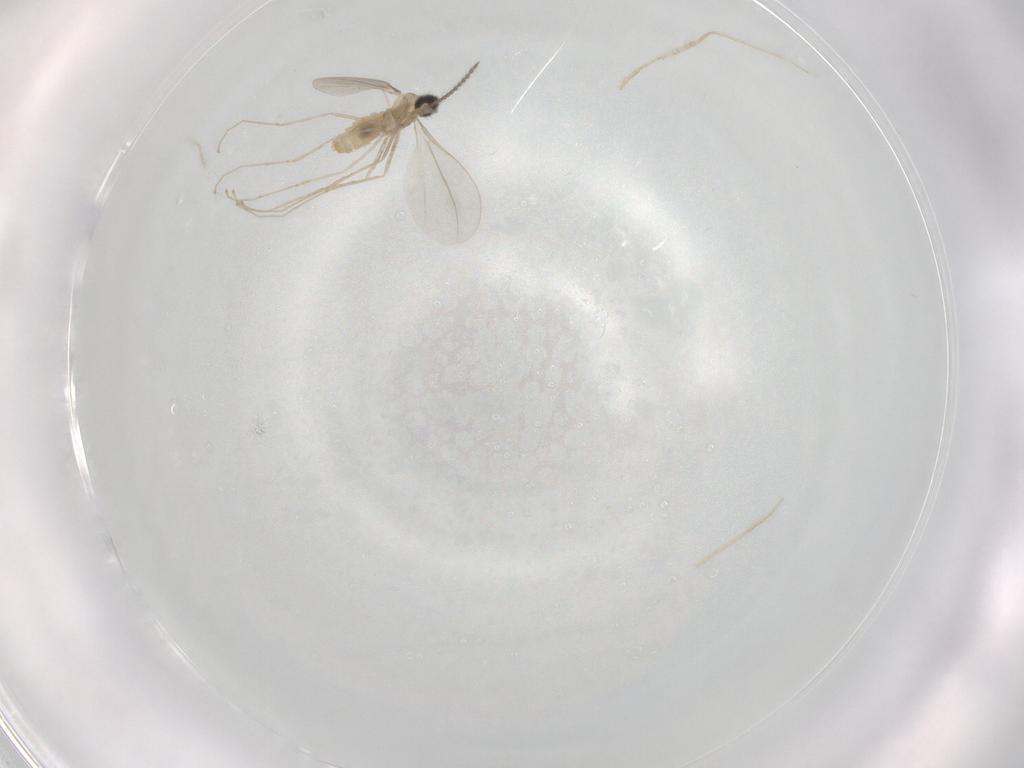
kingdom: Animalia
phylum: Arthropoda
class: Insecta
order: Diptera
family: Cecidomyiidae
